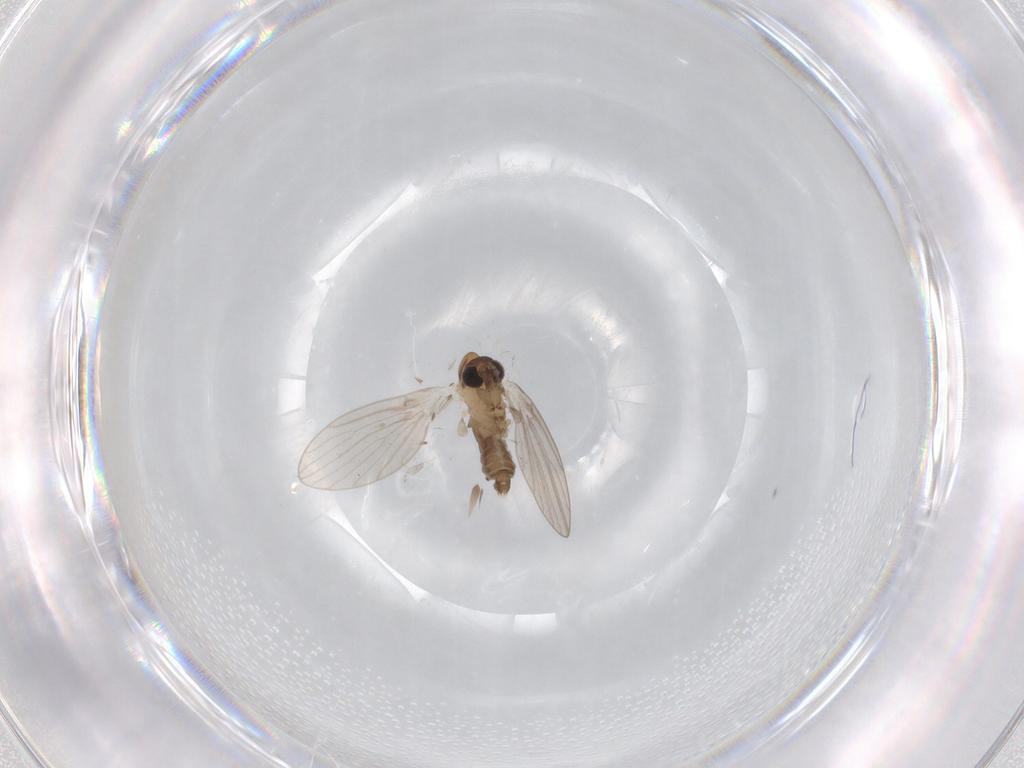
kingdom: Animalia
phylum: Arthropoda
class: Insecta
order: Diptera
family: Psychodidae
